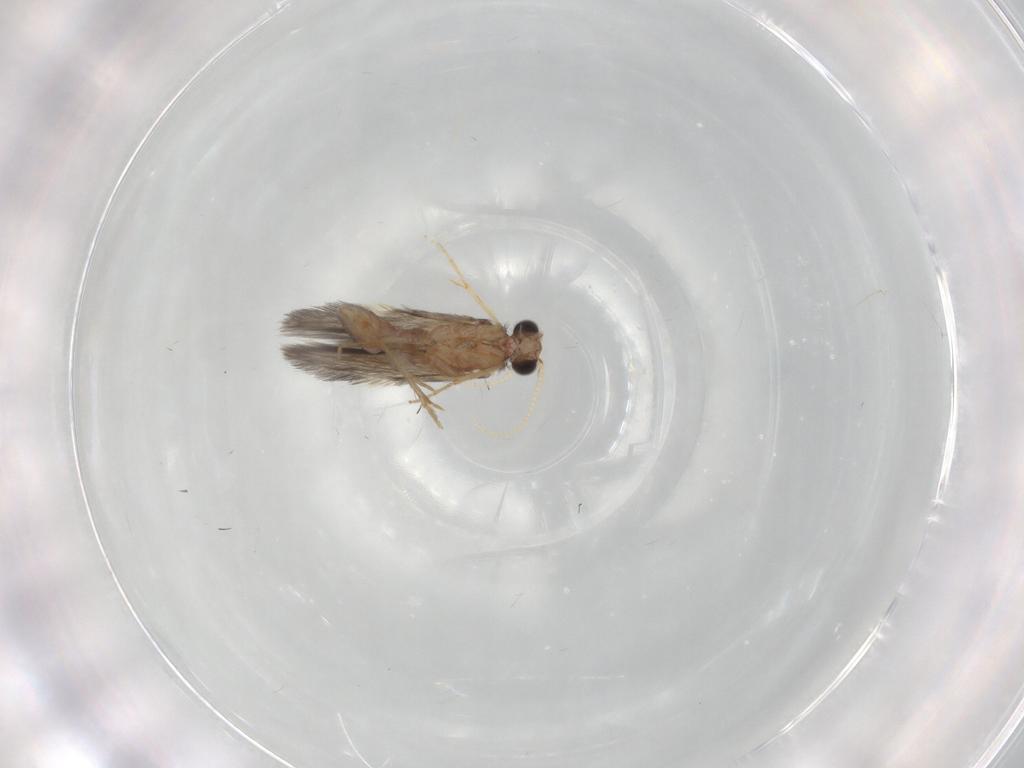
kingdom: Animalia
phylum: Arthropoda
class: Insecta
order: Trichoptera
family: Hydroptilidae
